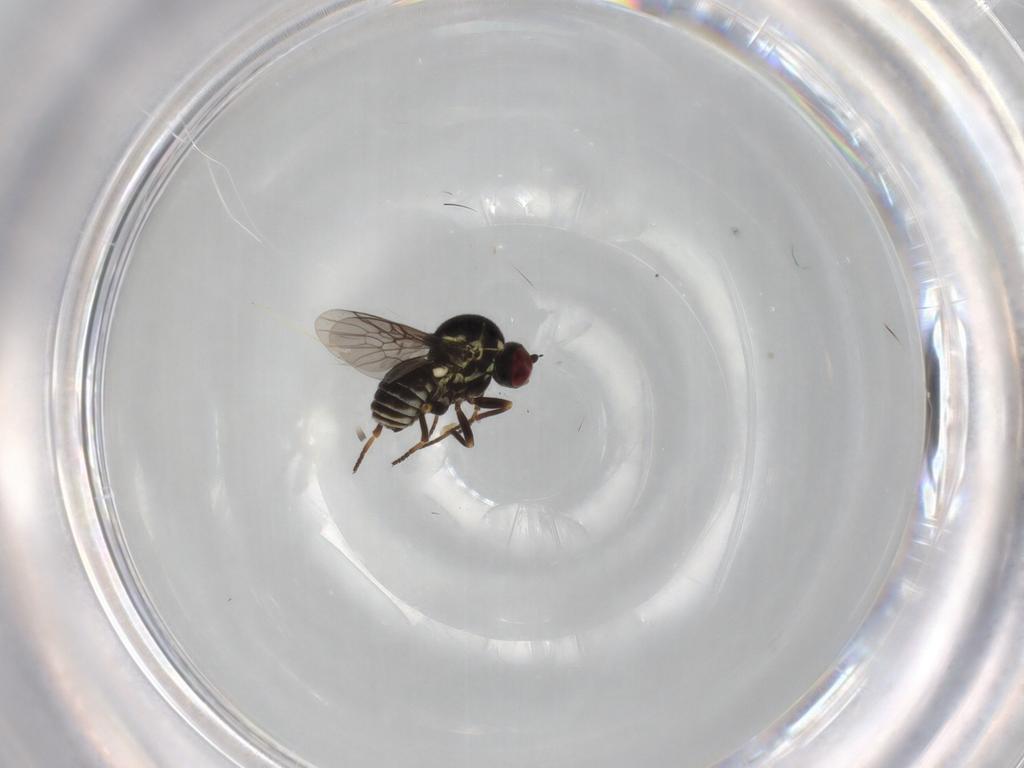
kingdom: Animalia
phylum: Arthropoda
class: Insecta
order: Diptera
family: Bombyliidae
